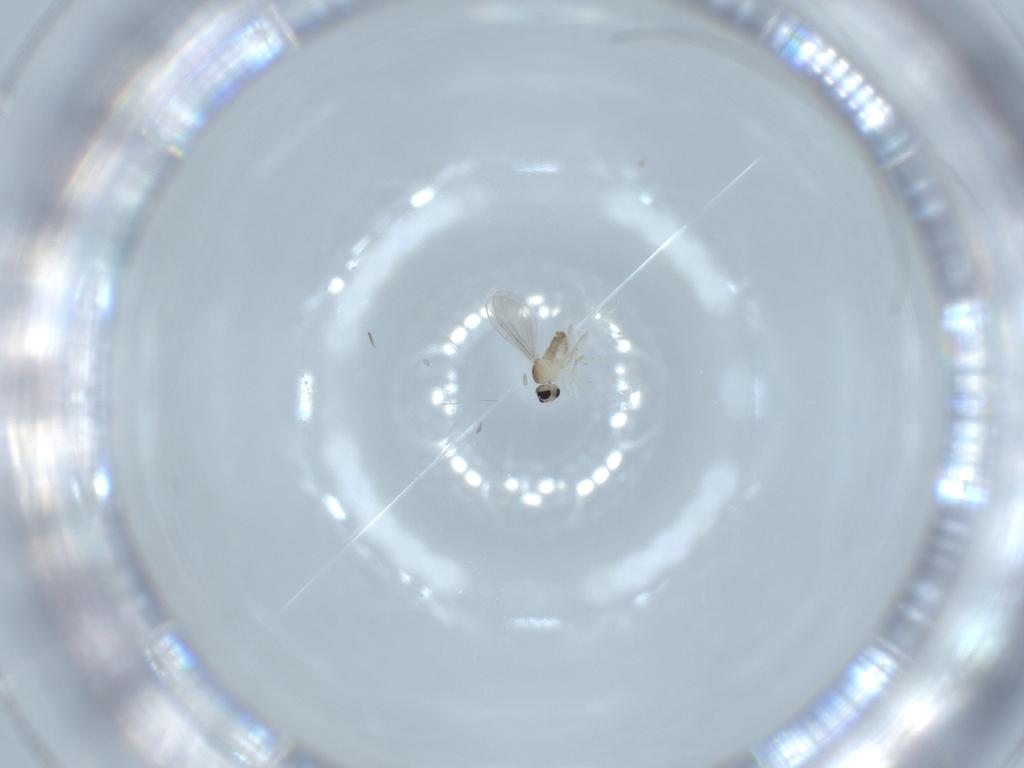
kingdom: Animalia
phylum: Arthropoda
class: Insecta
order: Diptera
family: Cecidomyiidae
